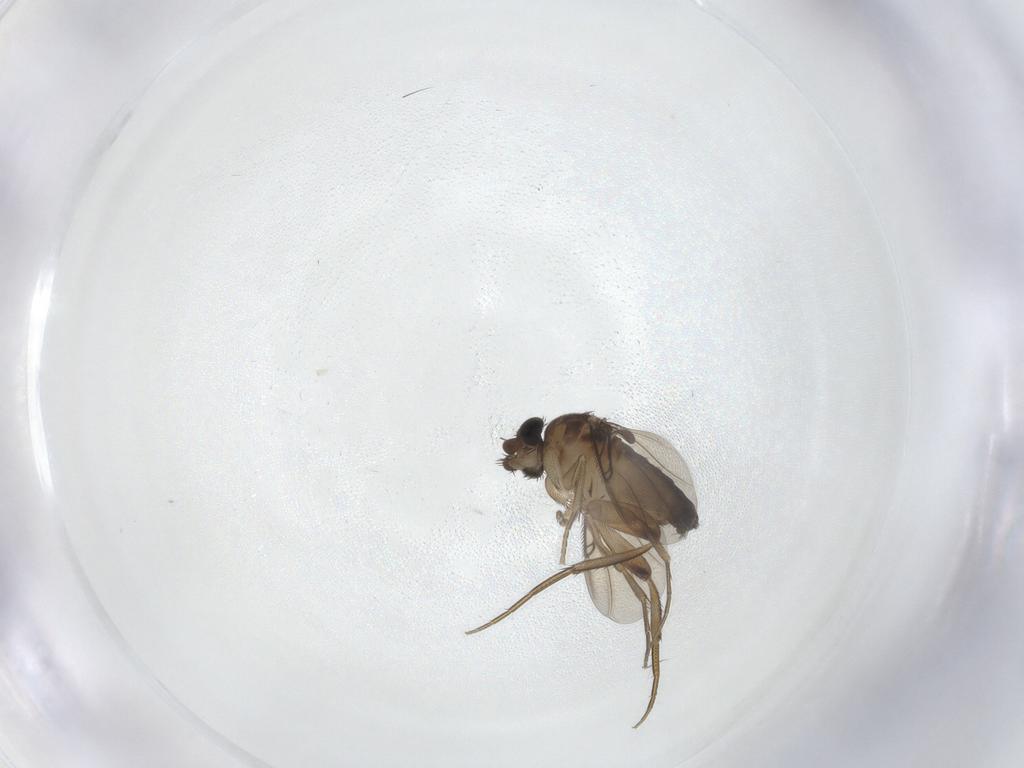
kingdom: Animalia
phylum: Arthropoda
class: Insecta
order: Diptera
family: Phoridae
